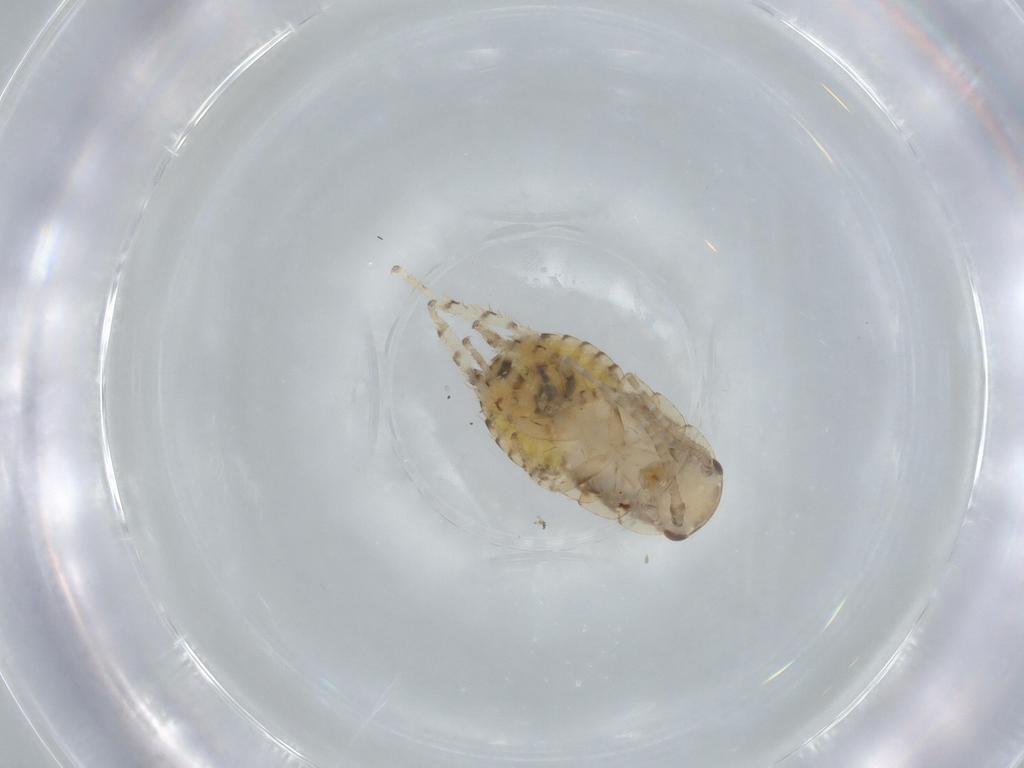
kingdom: Animalia
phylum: Arthropoda
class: Insecta
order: Blattodea
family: Ectobiidae
